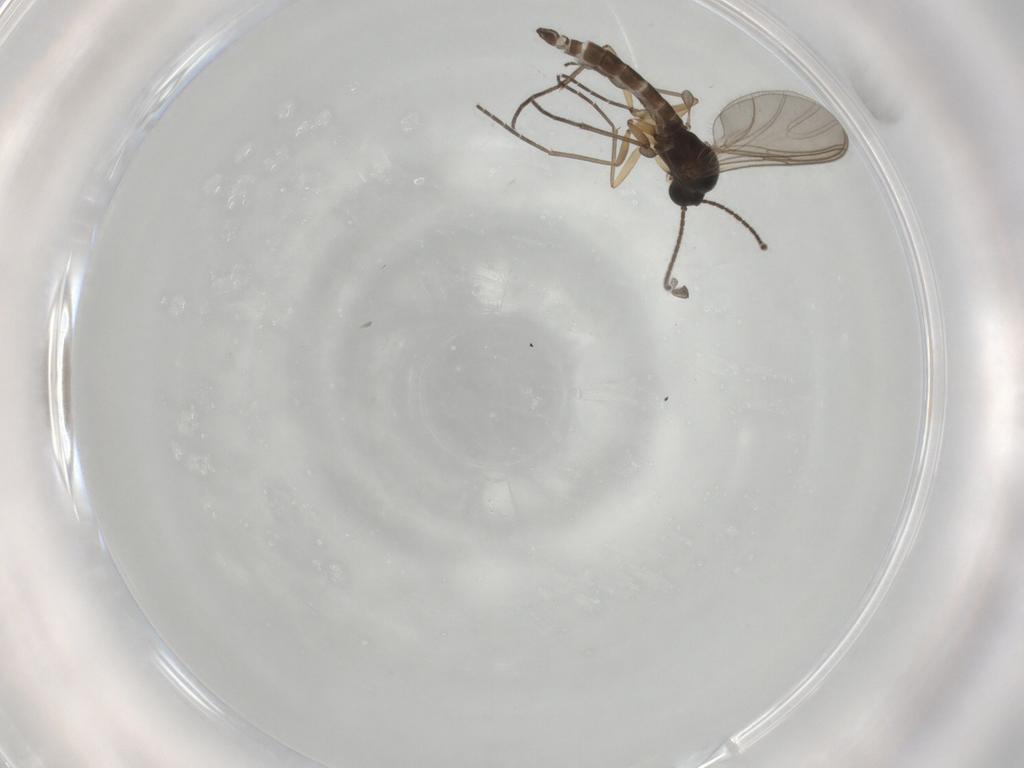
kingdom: Animalia
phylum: Arthropoda
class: Insecta
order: Diptera
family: Sciaridae
